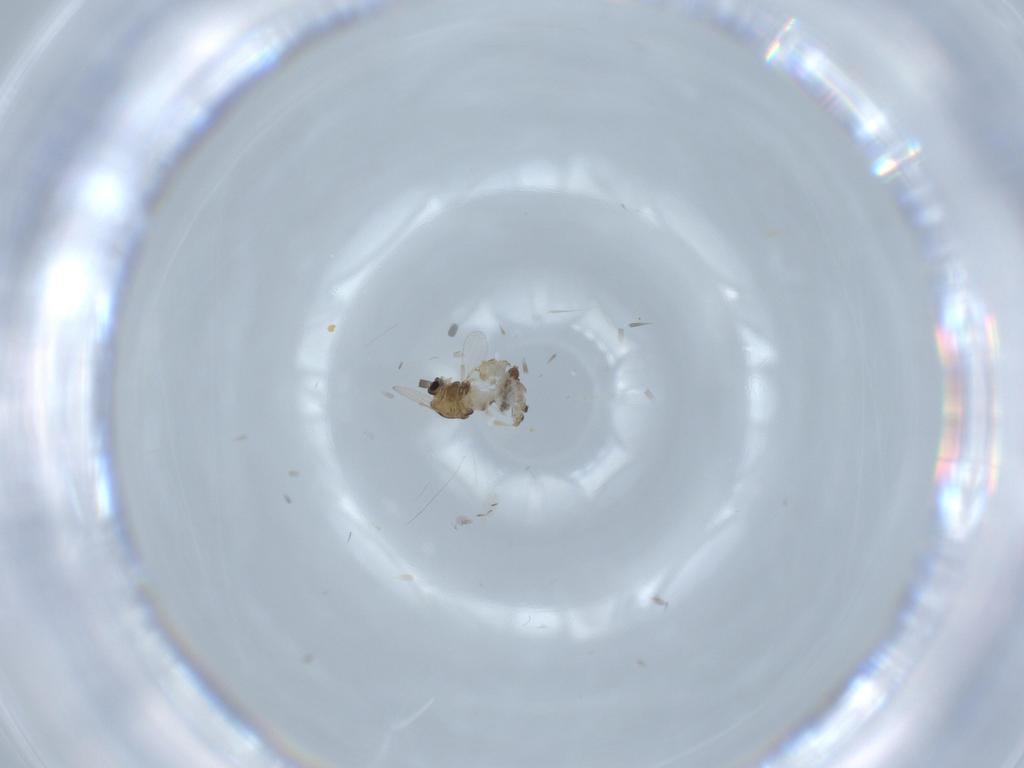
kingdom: Animalia
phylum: Arthropoda
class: Insecta
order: Diptera
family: Chironomidae
